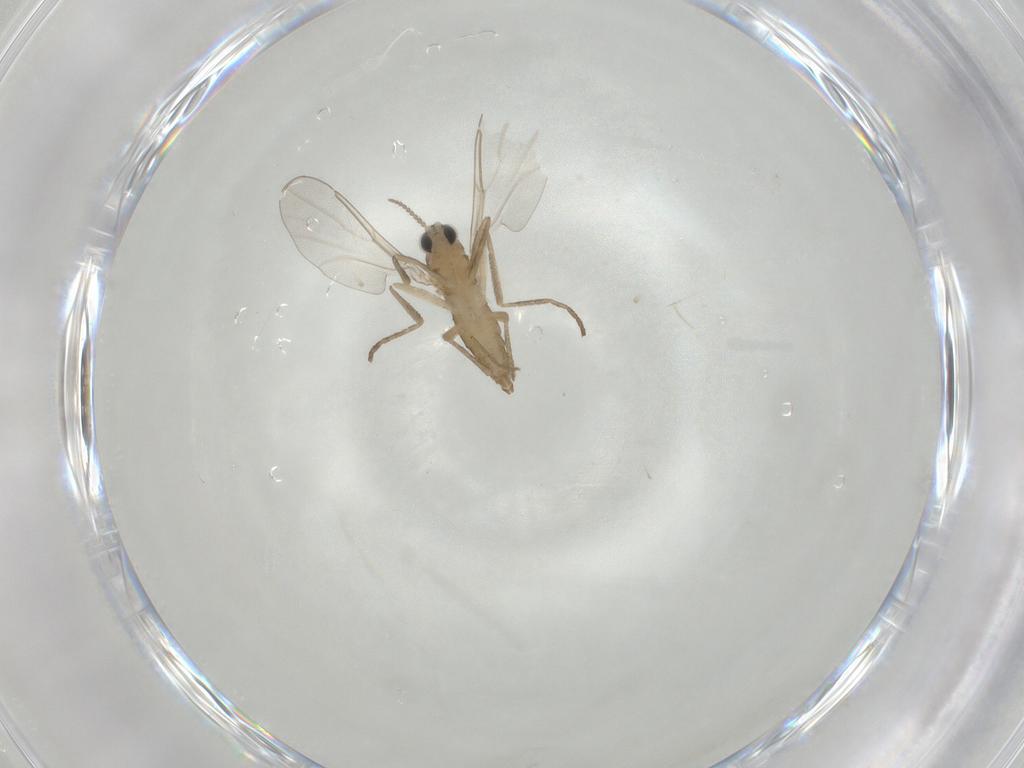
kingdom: Animalia
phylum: Arthropoda
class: Insecta
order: Diptera
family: Cecidomyiidae
